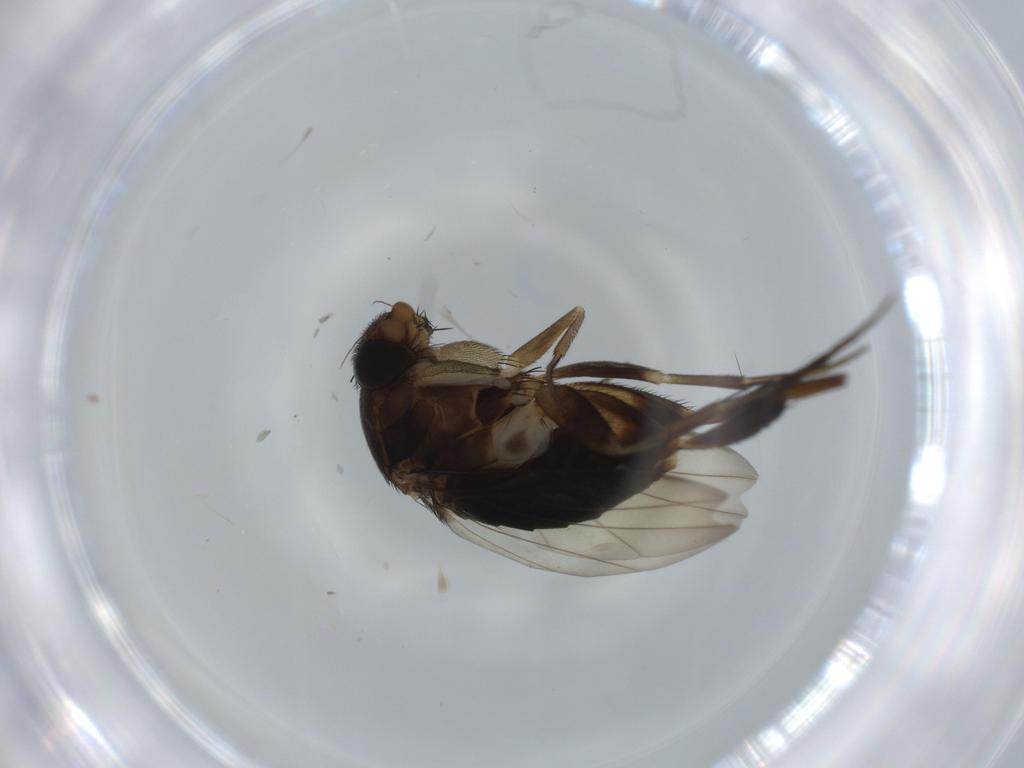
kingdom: Animalia
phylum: Arthropoda
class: Insecta
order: Diptera
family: Phoridae
